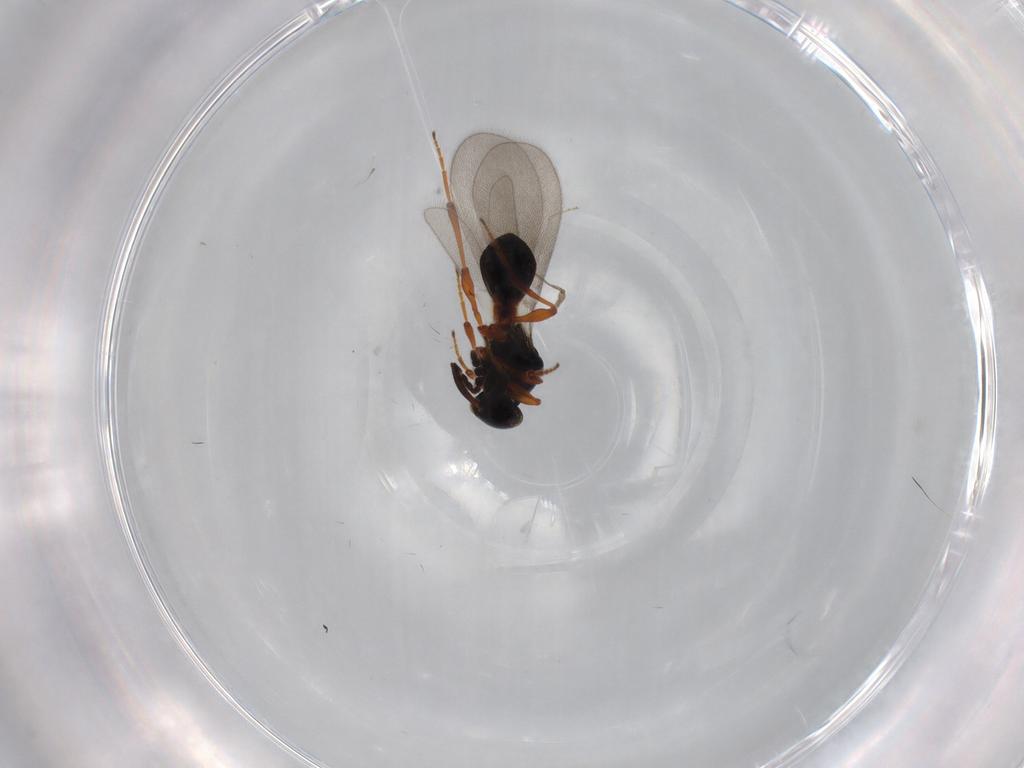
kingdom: Animalia
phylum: Arthropoda
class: Insecta
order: Hymenoptera
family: Platygastridae
